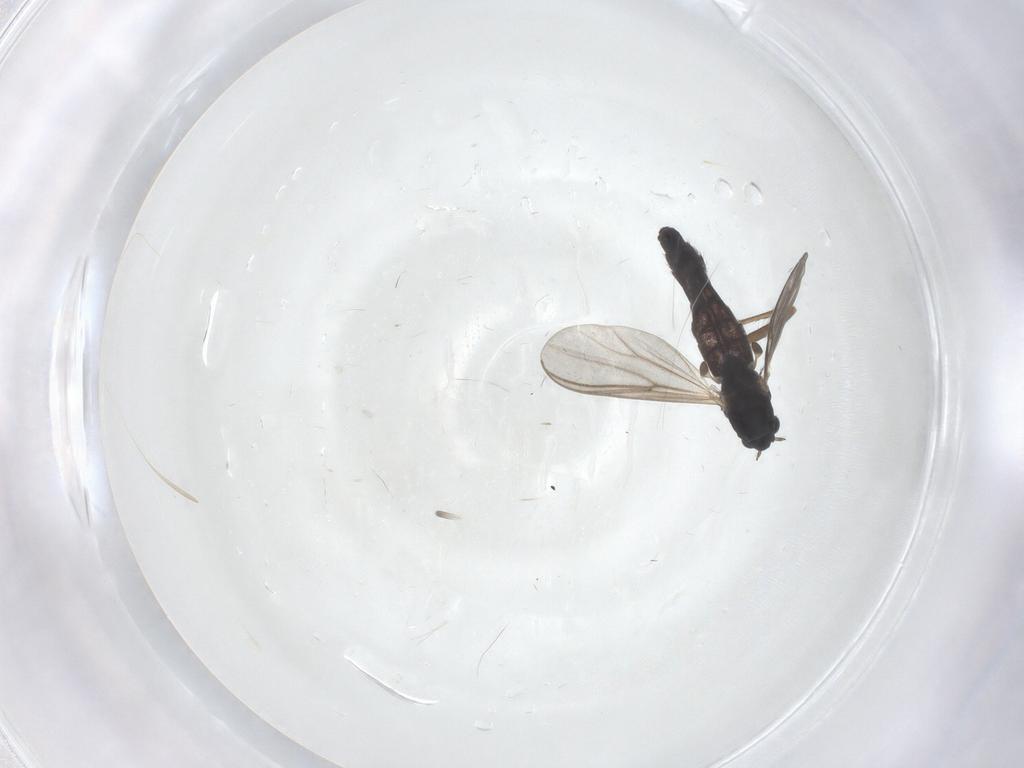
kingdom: Animalia
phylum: Arthropoda
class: Insecta
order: Diptera
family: Chironomidae
